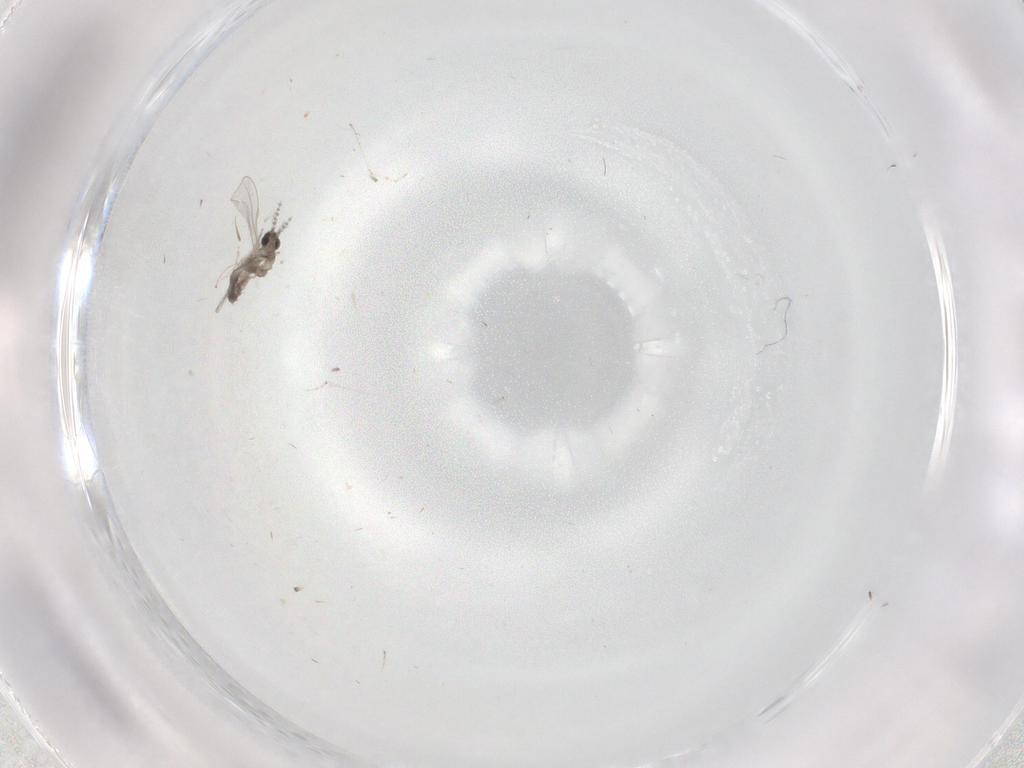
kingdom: Animalia
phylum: Arthropoda
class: Insecta
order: Diptera
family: Cecidomyiidae
